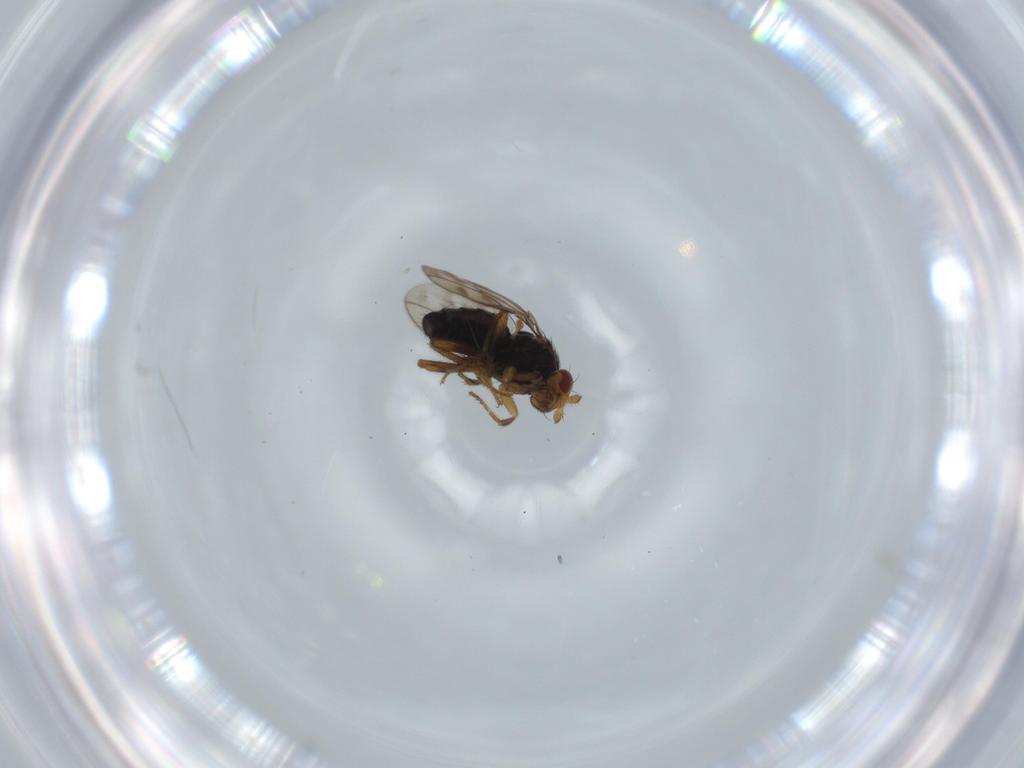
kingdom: Animalia
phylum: Arthropoda
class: Insecta
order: Diptera
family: Sphaeroceridae
